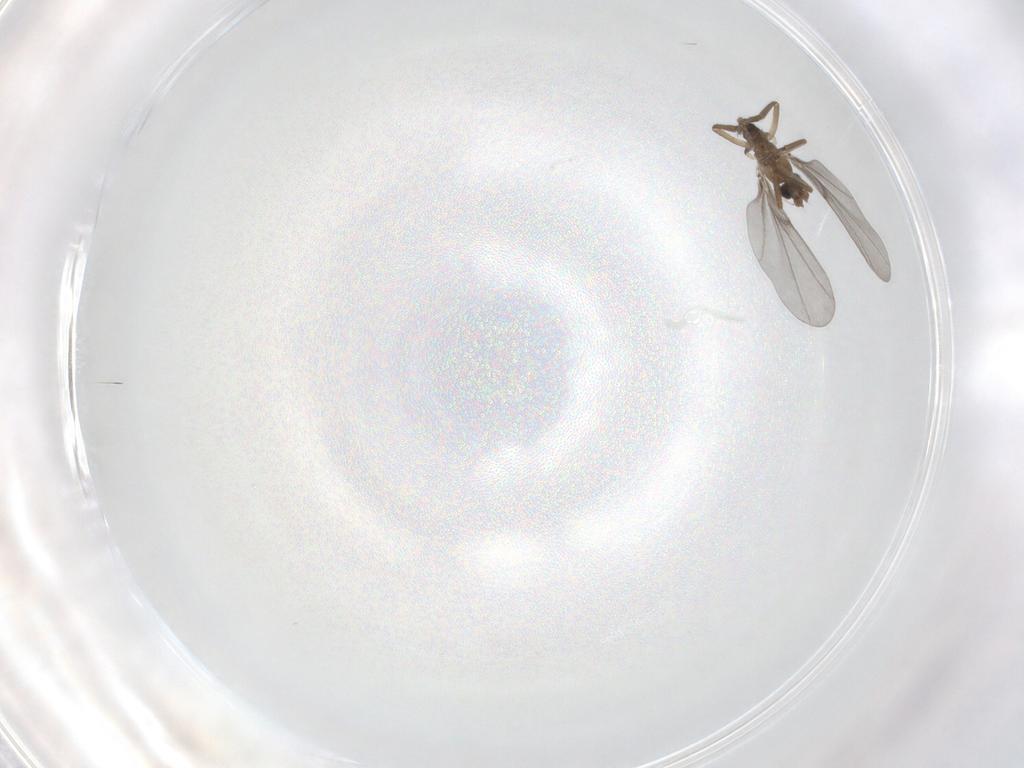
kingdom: Animalia
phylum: Arthropoda
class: Insecta
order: Diptera
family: Phoridae
